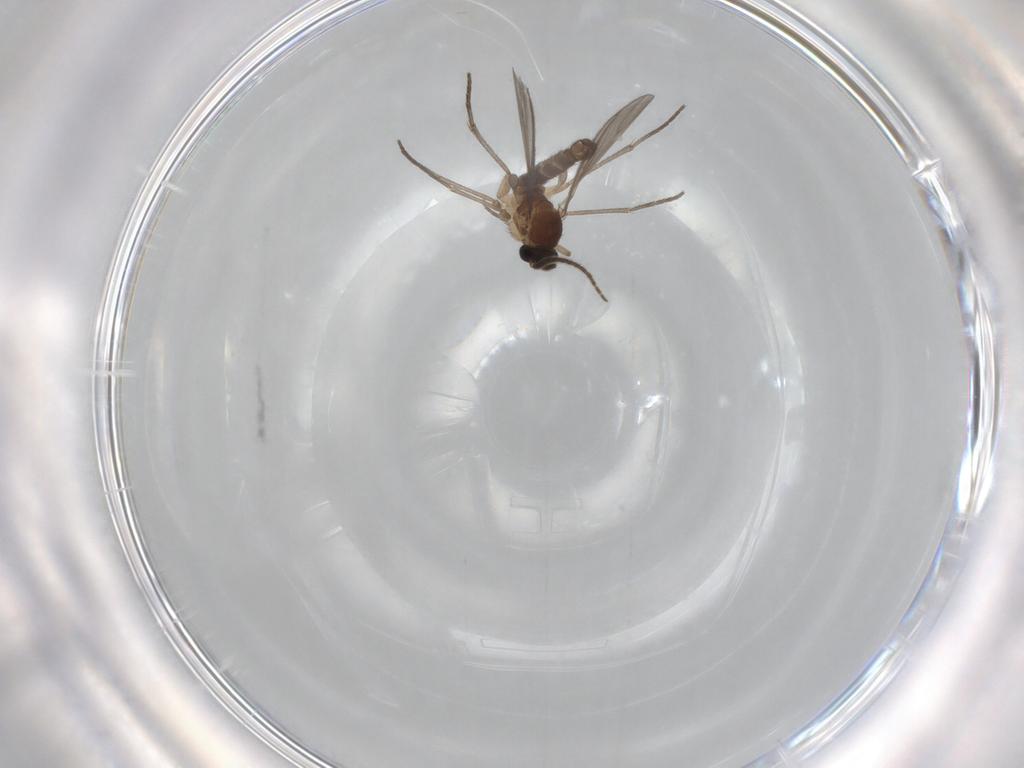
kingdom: Animalia
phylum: Arthropoda
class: Insecta
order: Diptera
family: Sciaridae
